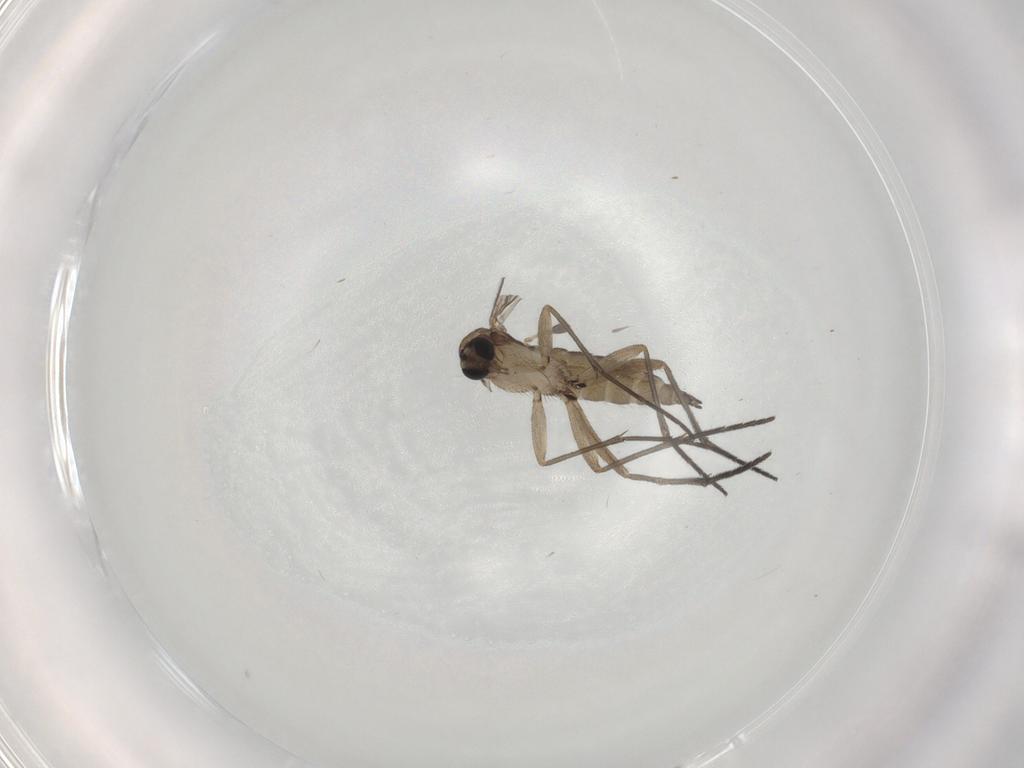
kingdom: Animalia
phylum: Arthropoda
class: Insecta
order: Diptera
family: Sciaridae
